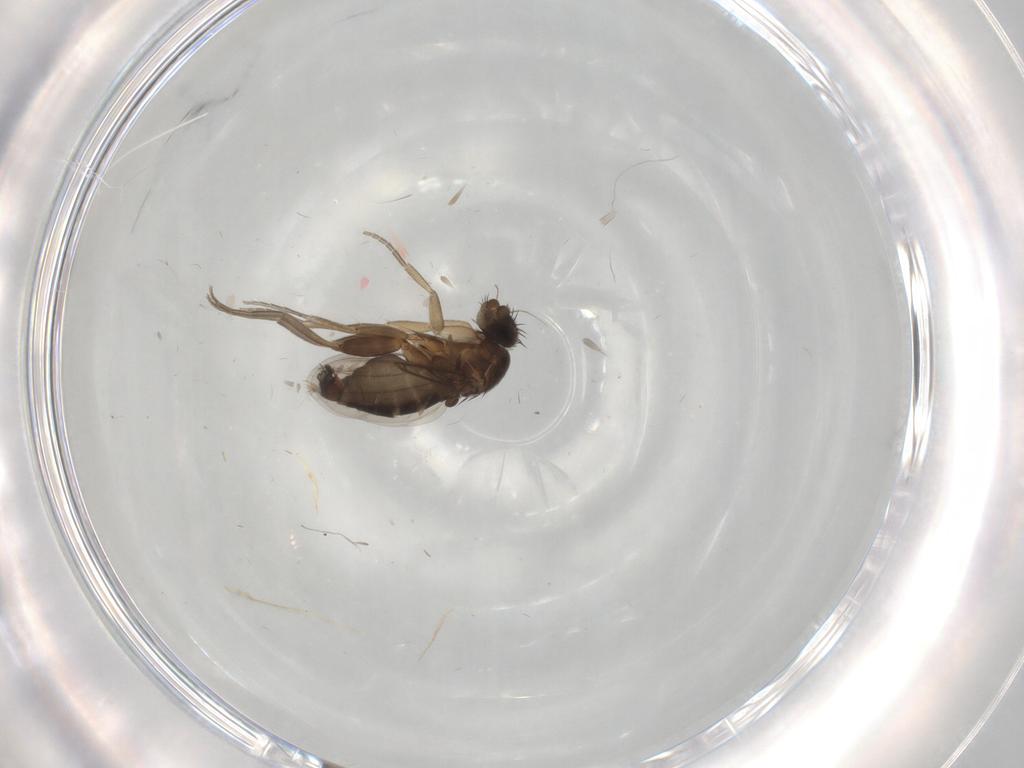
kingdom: Animalia
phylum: Arthropoda
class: Insecta
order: Diptera
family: Phoridae
